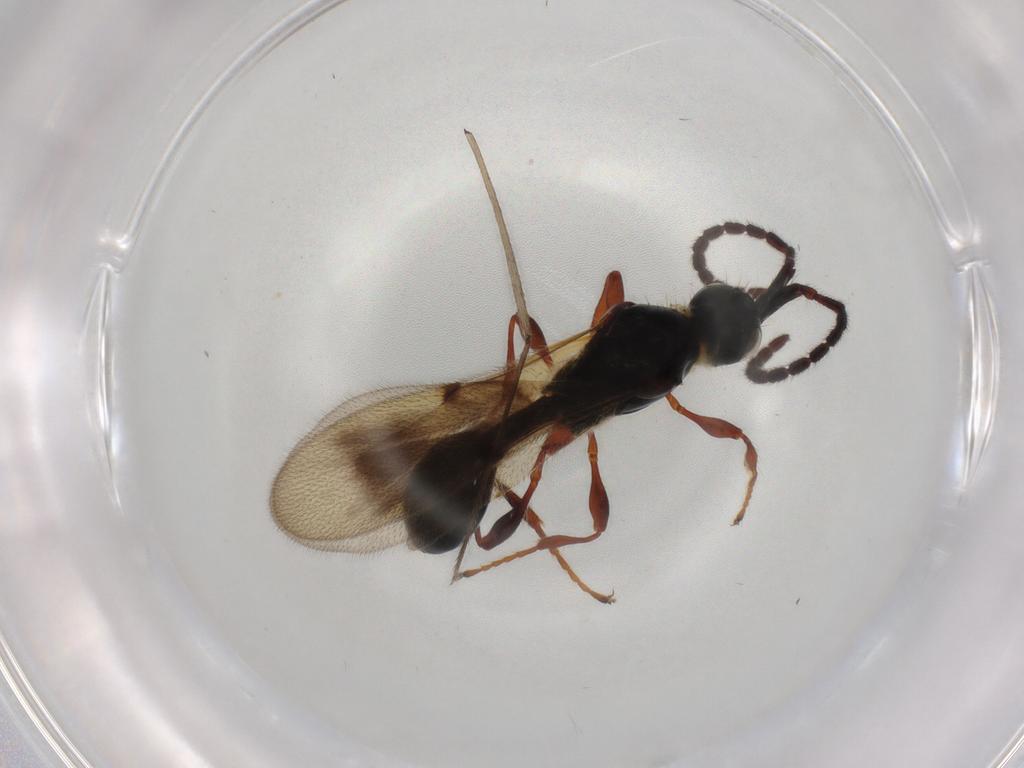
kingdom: Animalia
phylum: Arthropoda
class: Insecta
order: Hymenoptera
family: Diapriidae
